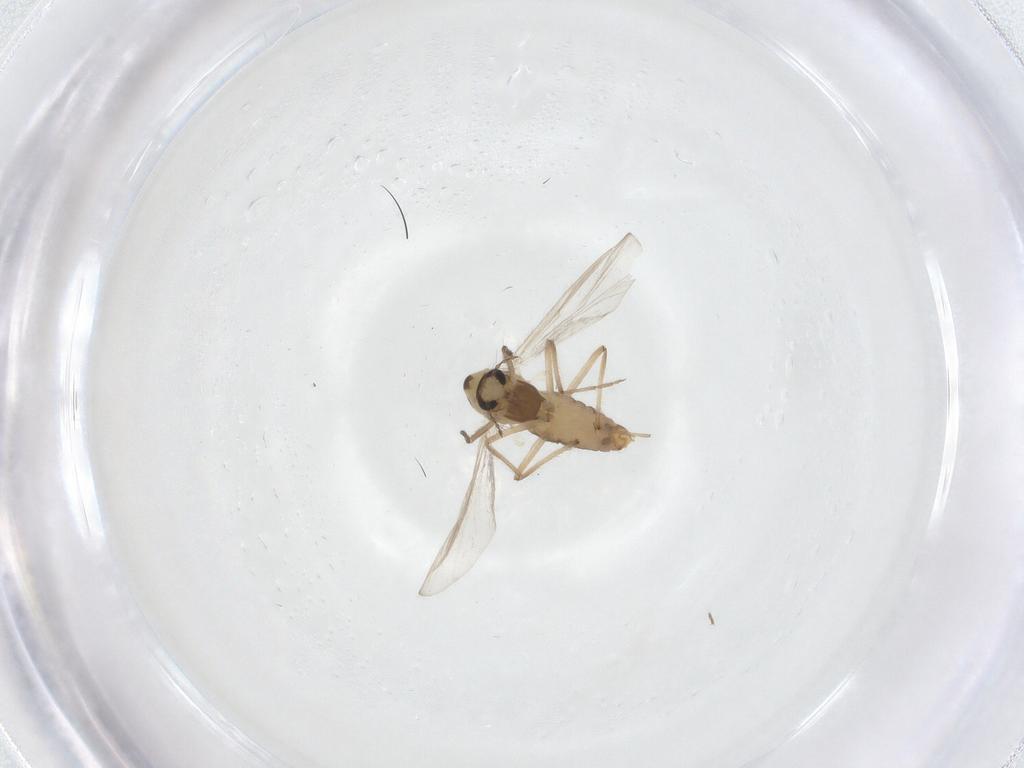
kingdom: Animalia
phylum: Arthropoda
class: Insecta
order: Diptera
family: Chironomidae
